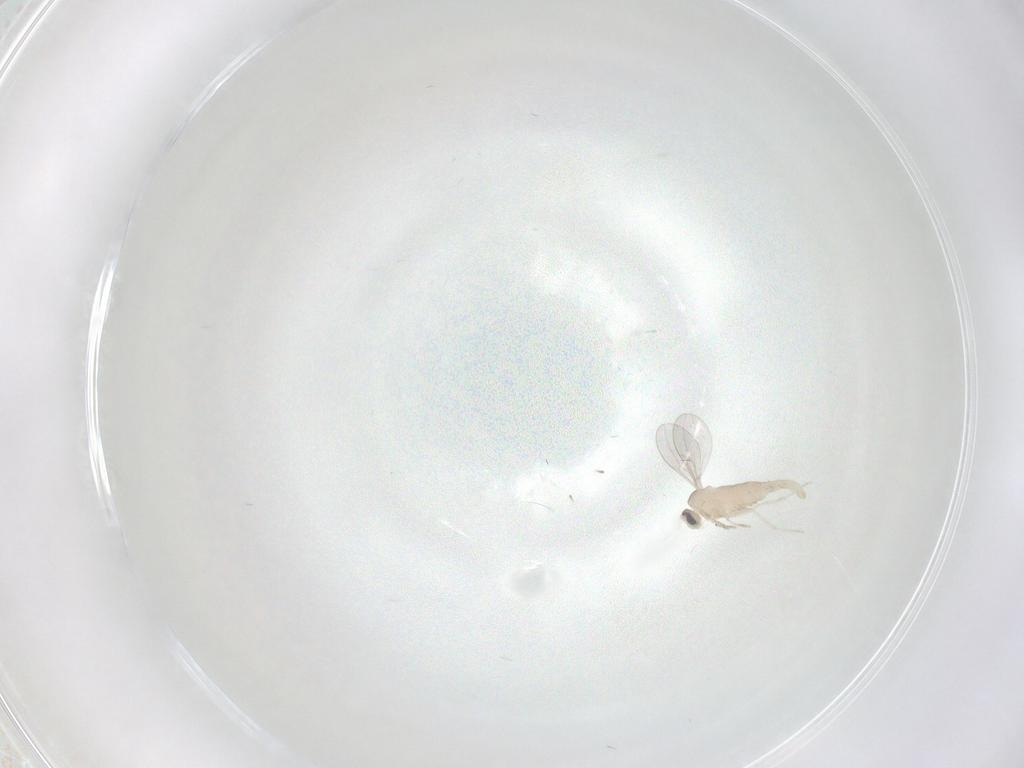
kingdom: Animalia
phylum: Arthropoda
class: Insecta
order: Diptera
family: Cecidomyiidae
